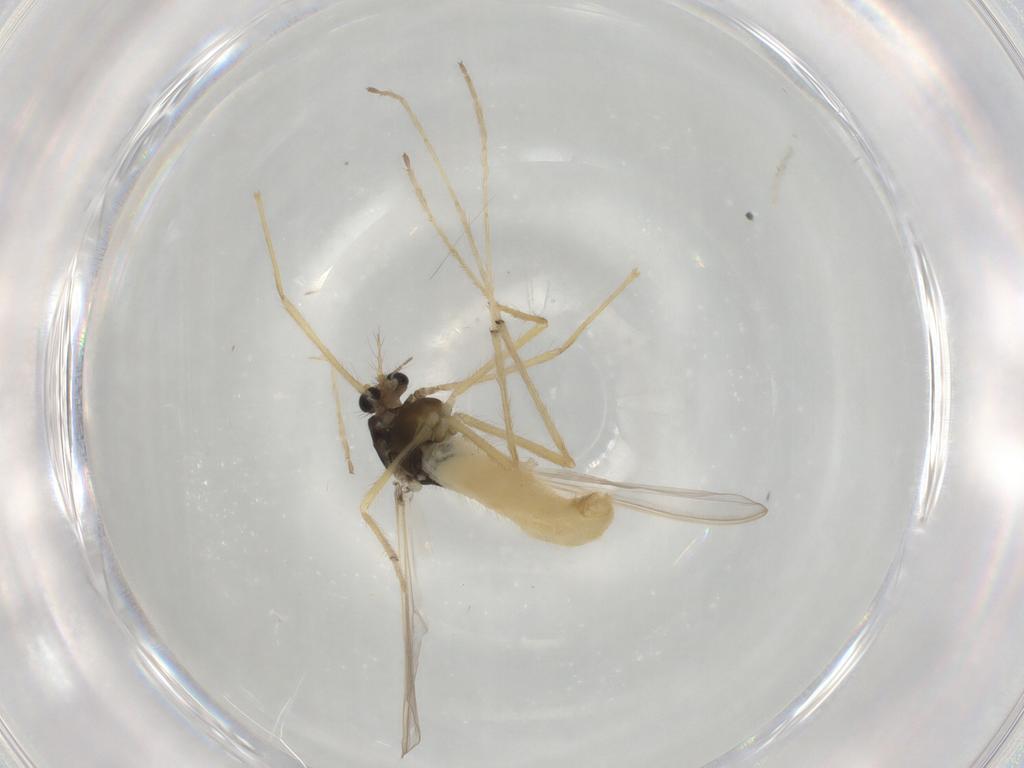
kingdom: Animalia
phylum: Arthropoda
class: Insecta
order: Diptera
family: Chironomidae
